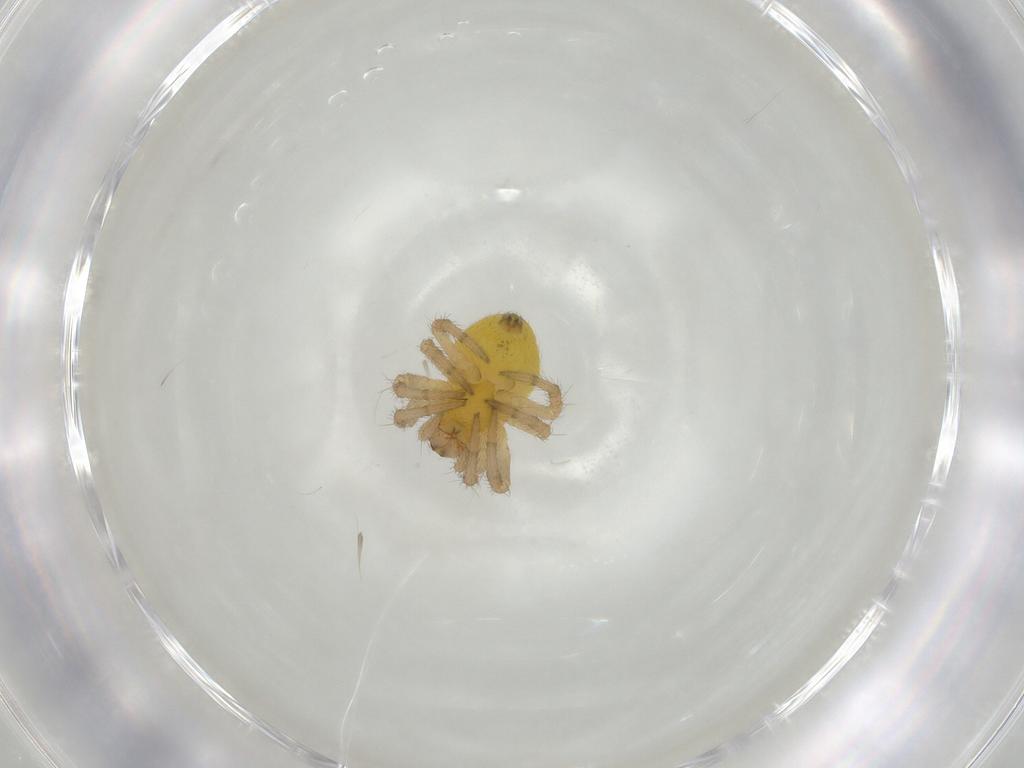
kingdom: Animalia
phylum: Arthropoda
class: Arachnida
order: Araneae
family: Araneidae
